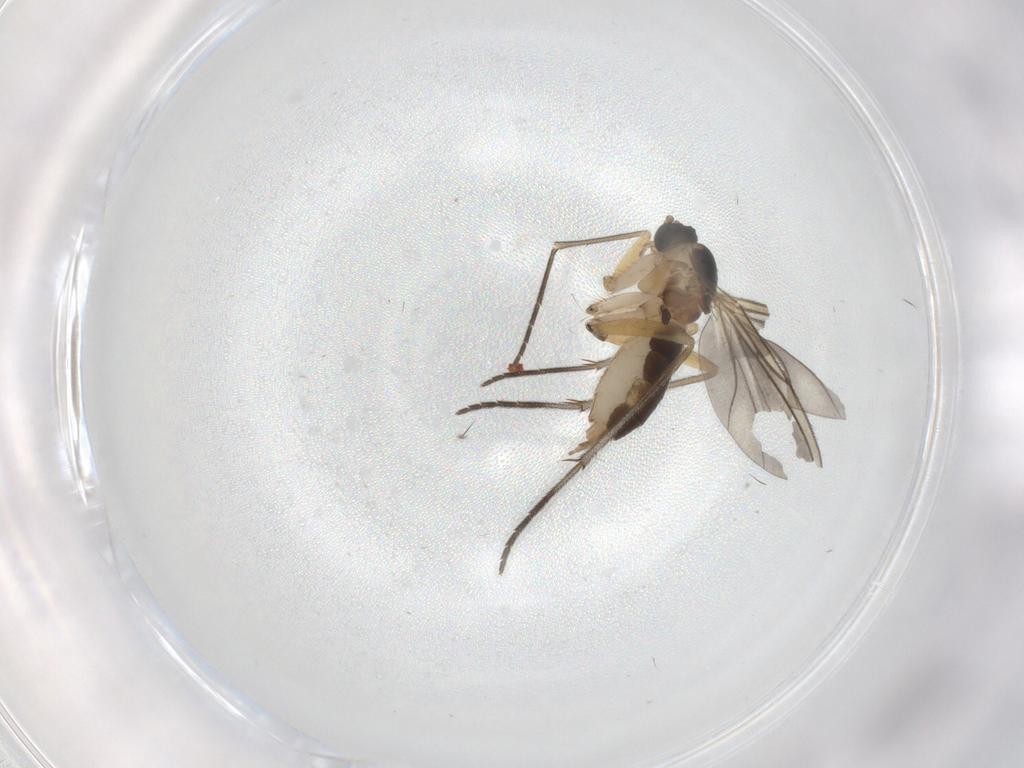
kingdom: Animalia
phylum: Arthropoda
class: Insecta
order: Diptera
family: Sciaridae
